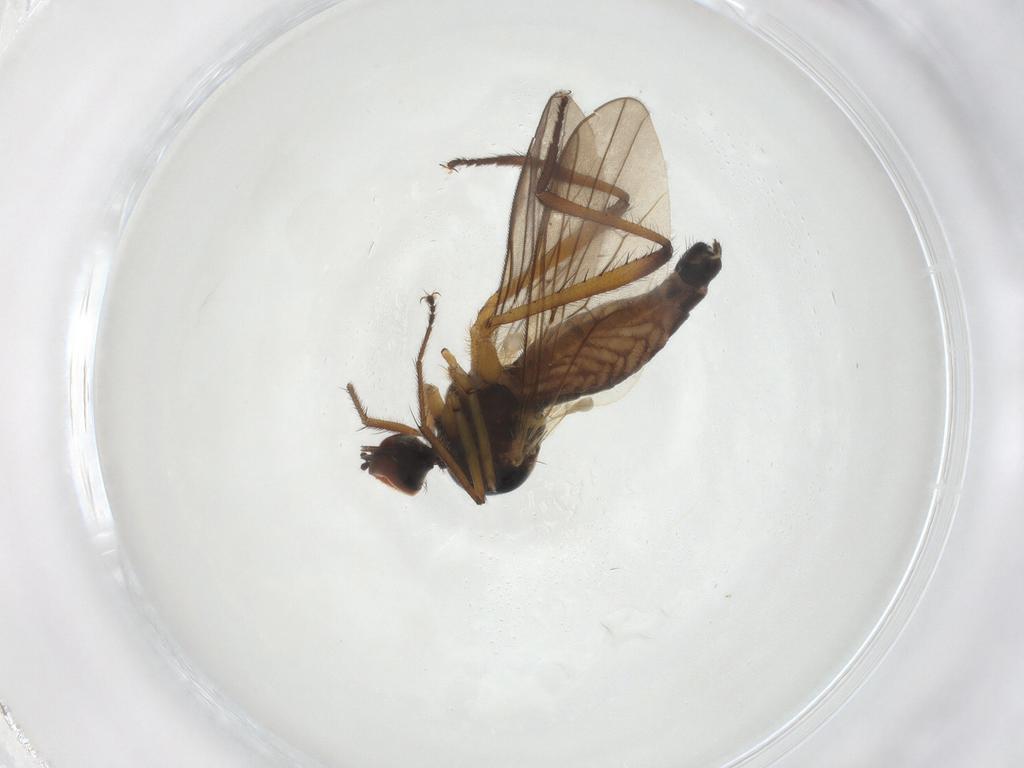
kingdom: Animalia
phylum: Arthropoda
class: Insecta
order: Diptera
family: Hybotidae
